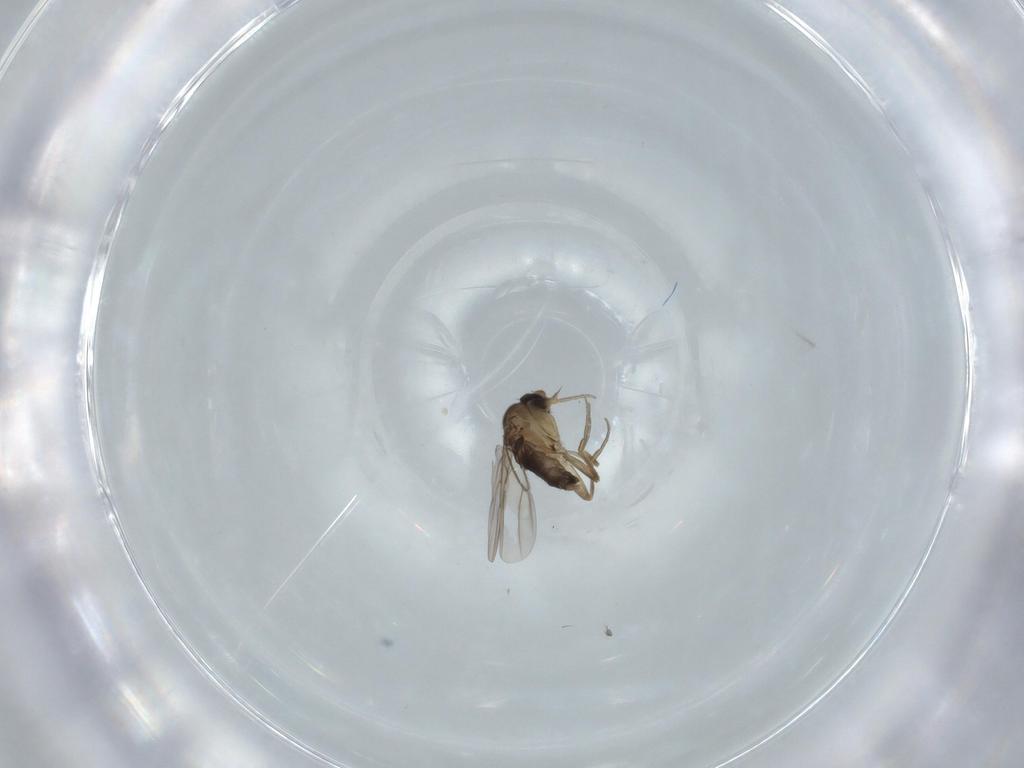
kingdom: Animalia
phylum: Arthropoda
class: Insecta
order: Diptera
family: Phoridae
